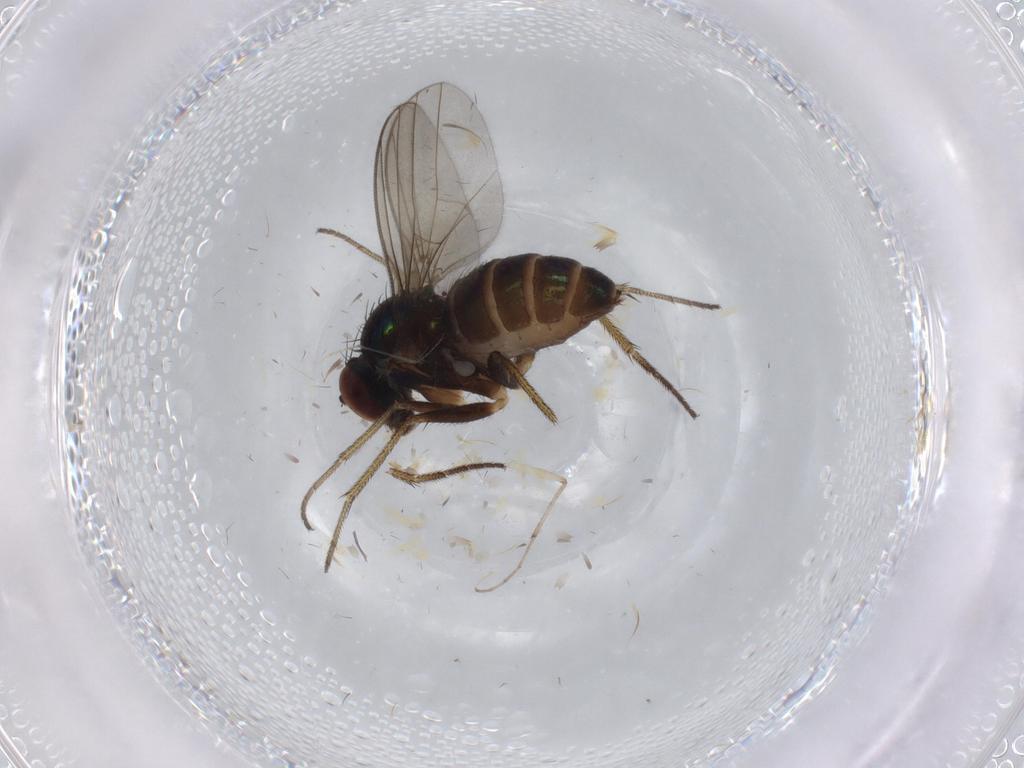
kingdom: Animalia
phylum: Arthropoda
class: Insecta
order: Diptera
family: Dolichopodidae
